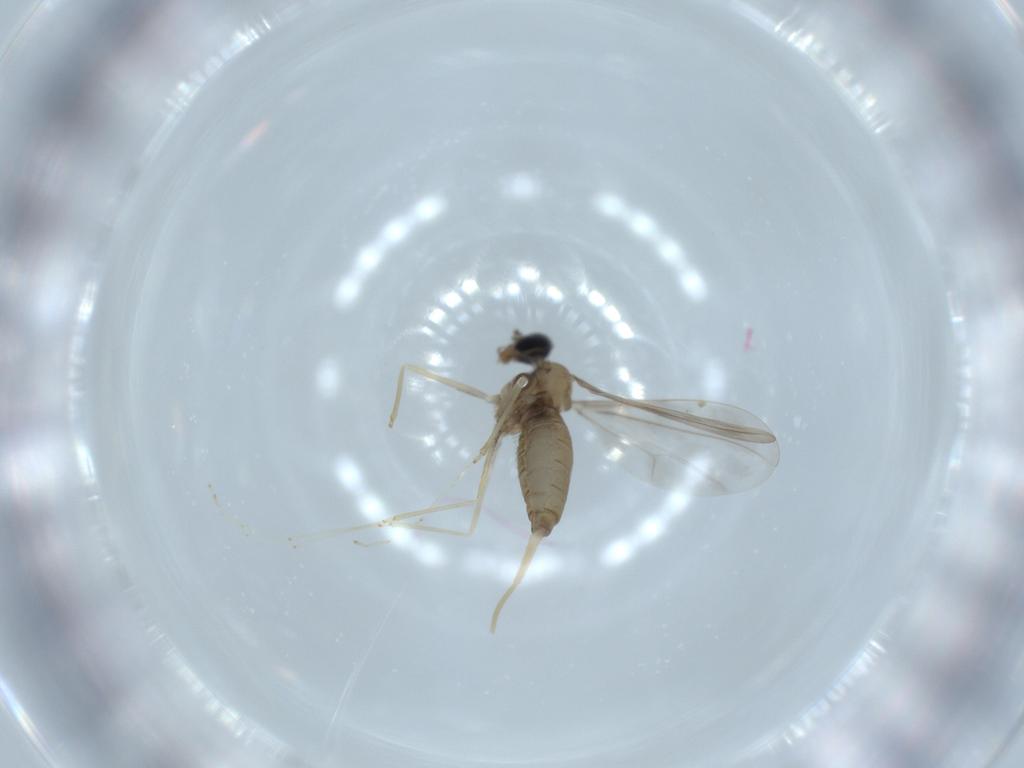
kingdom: Animalia
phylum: Arthropoda
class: Insecta
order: Diptera
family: Cecidomyiidae
